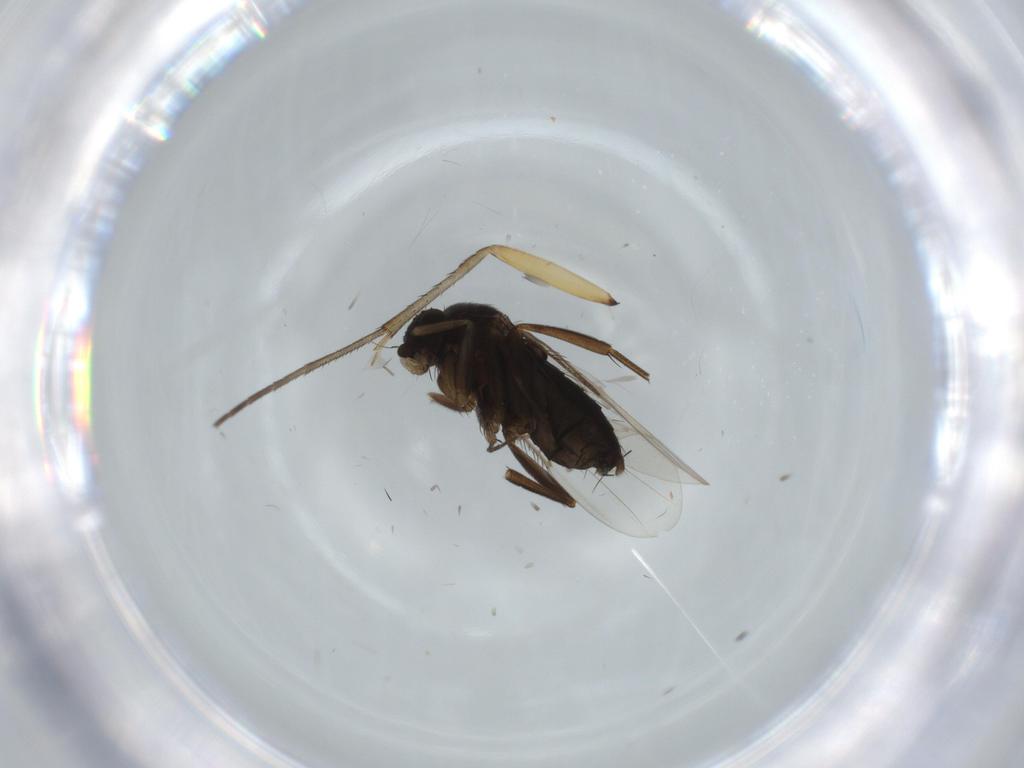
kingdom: Animalia
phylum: Arthropoda
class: Insecta
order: Diptera
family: Phoridae
